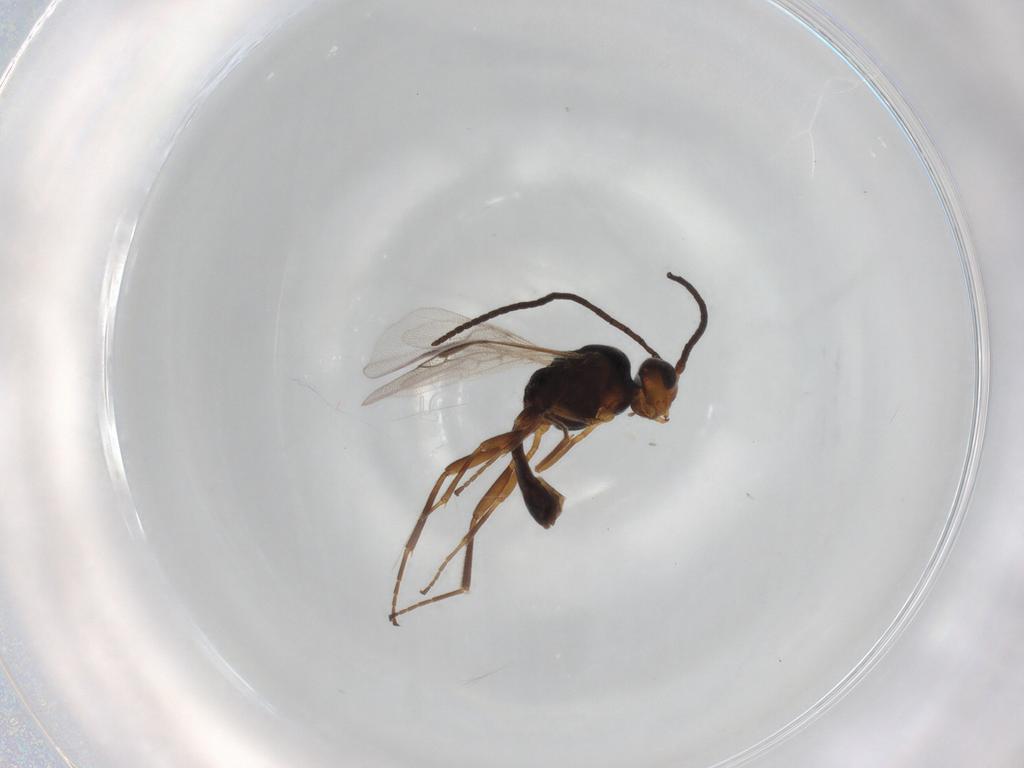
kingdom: Animalia
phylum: Arthropoda
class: Insecta
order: Hymenoptera
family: Braconidae
